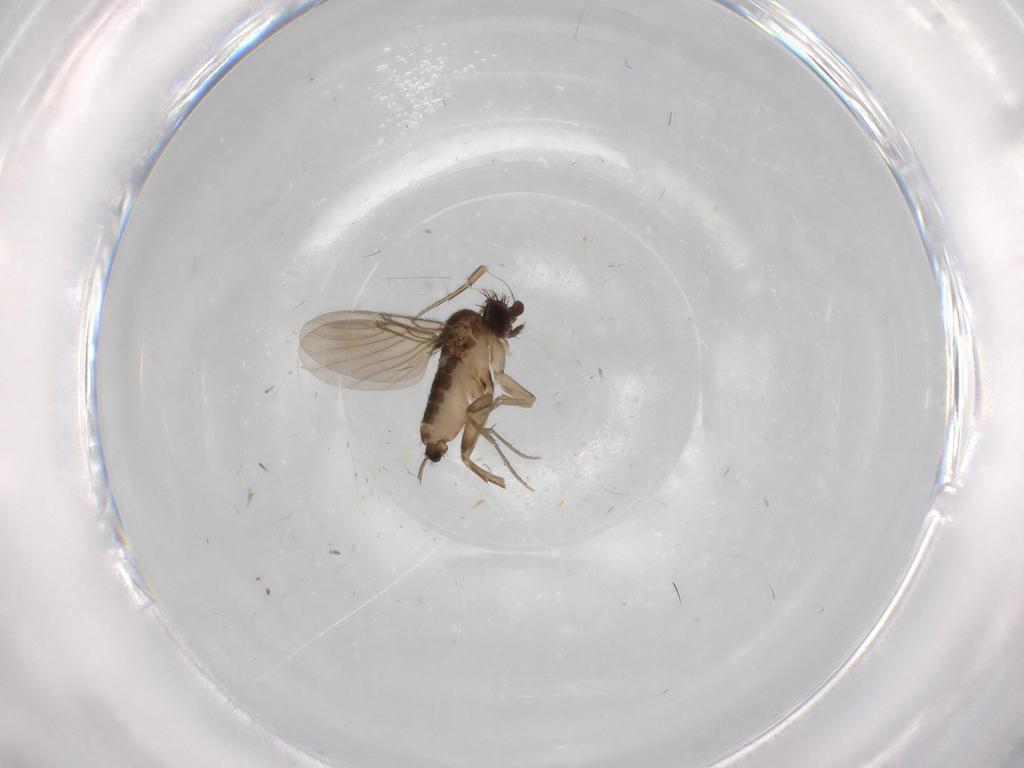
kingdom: Animalia
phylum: Arthropoda
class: Insecta
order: Diptera
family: Phoridae
